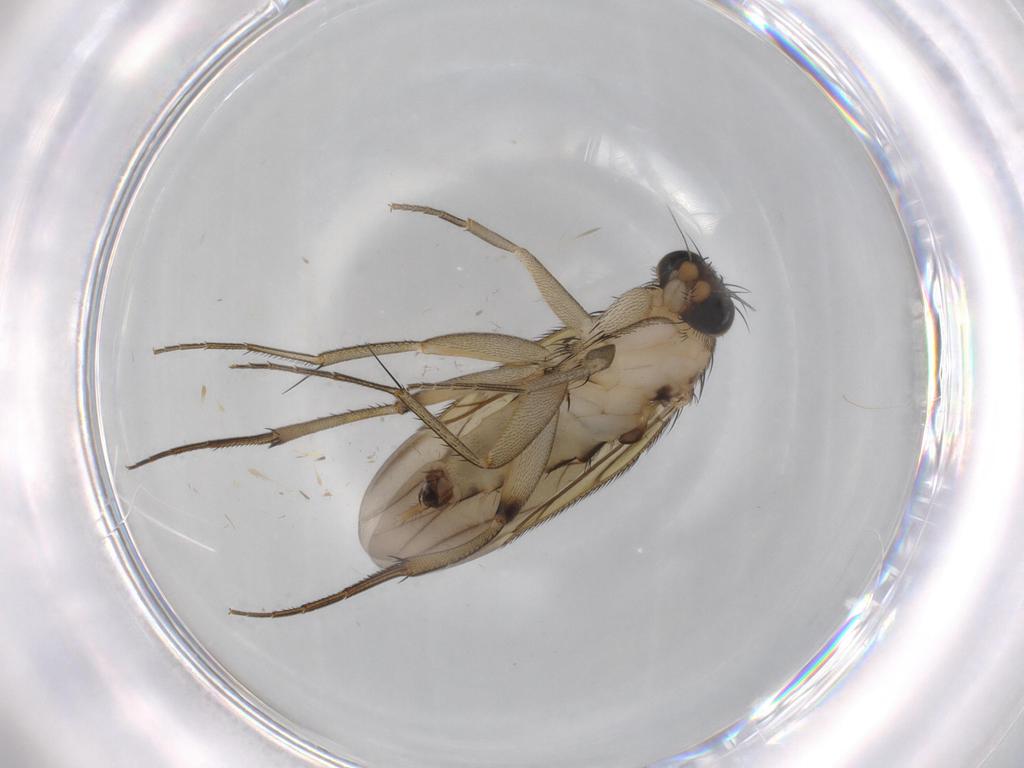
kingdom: Animalia
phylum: Arthropoda
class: Insecta
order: Diptera
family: Phoridae
